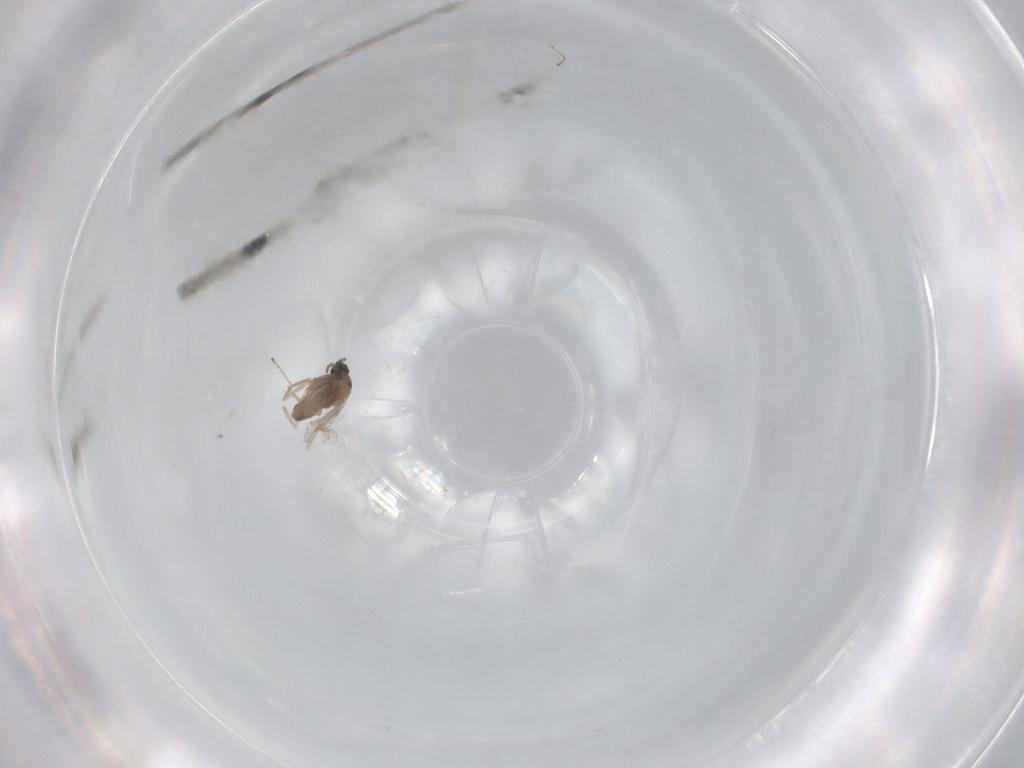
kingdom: Animalia
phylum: Arthropoda
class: Insecta
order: Diptera
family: Cecidomyiidae
